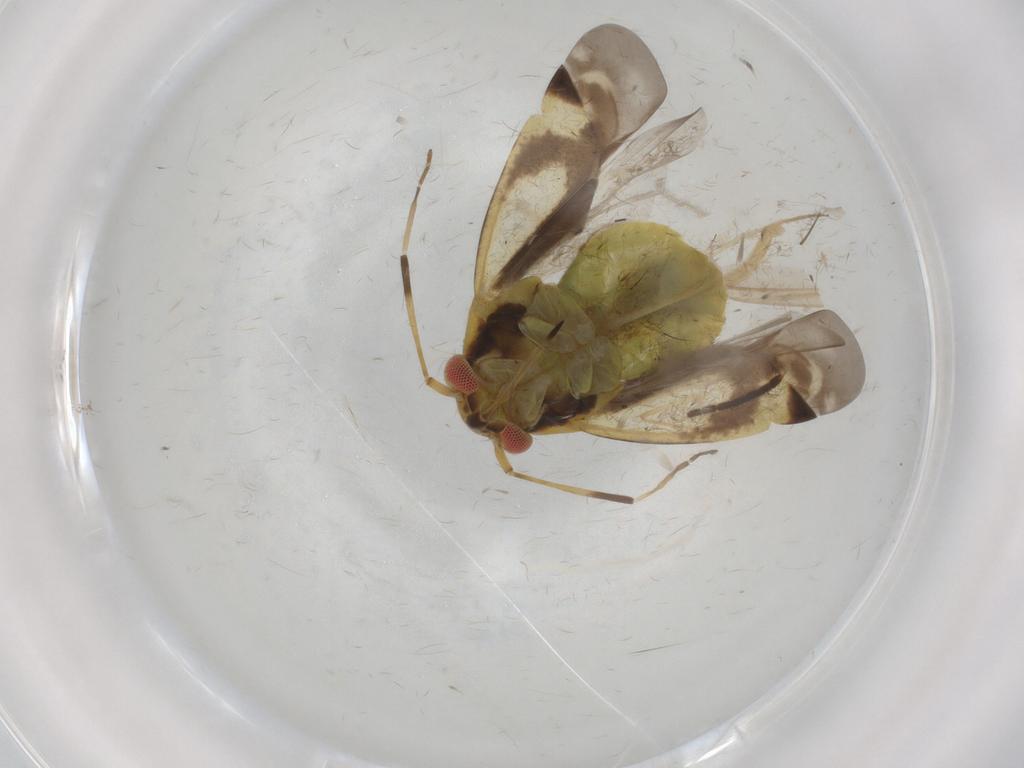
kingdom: Animalia
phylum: Arthropoda
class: Insecta
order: Hemiptera
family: Miridae
